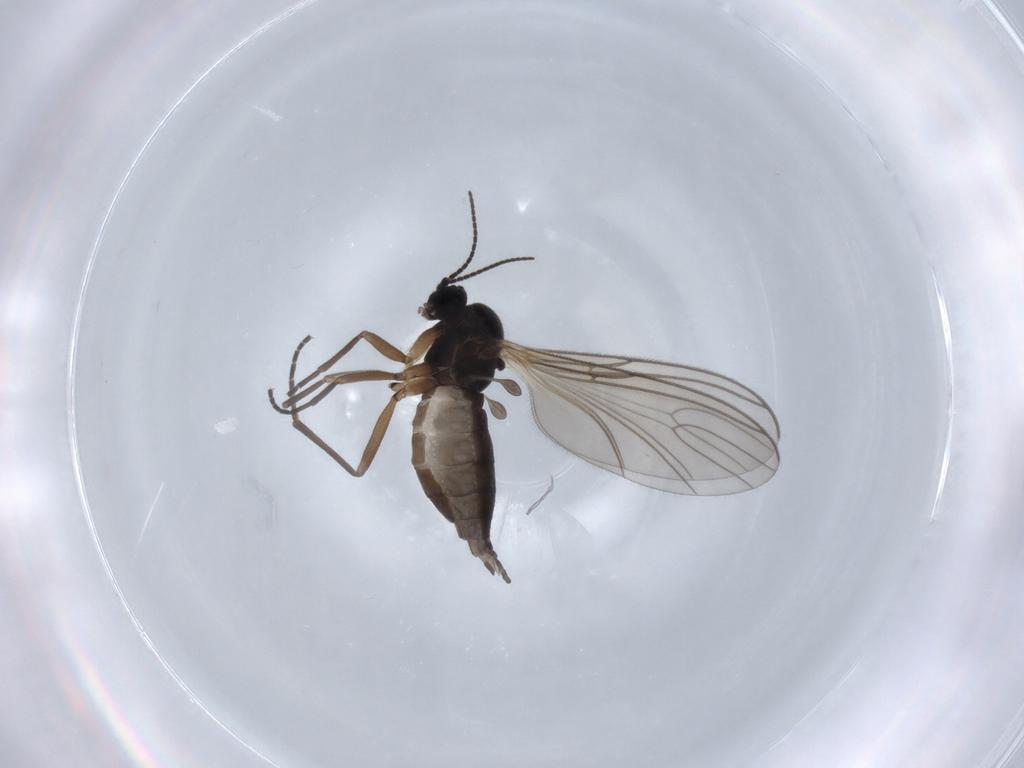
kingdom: Animalia
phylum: Arthropoda
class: Insecta
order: Diptera
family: Sciaridae
